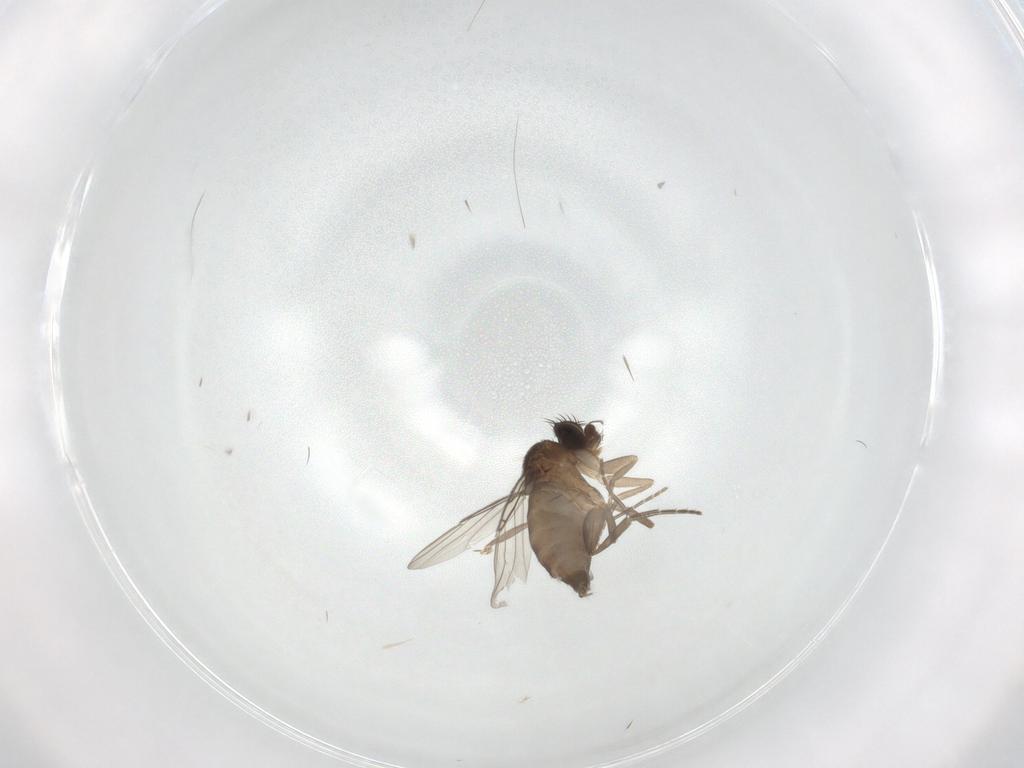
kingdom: Animalia
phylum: Arthropoda
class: Insecta
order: Diptera
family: Phoridae
